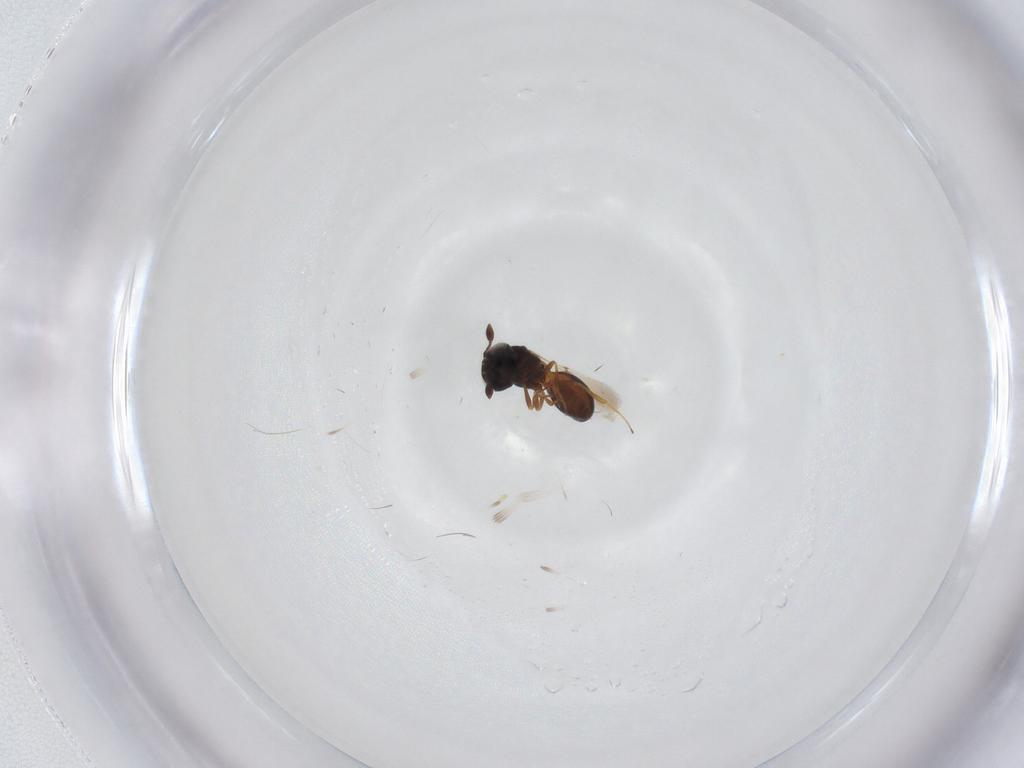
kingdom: Animalia
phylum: Arthropoda
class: Insecta
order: Hymenoptera
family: Scelionidae
